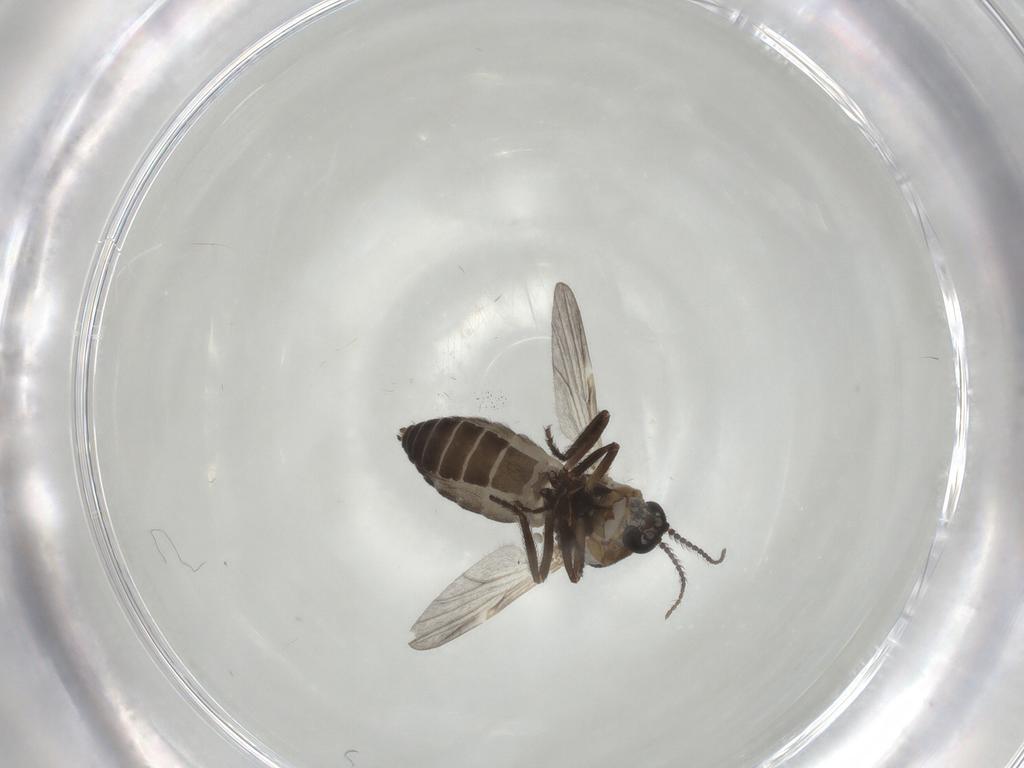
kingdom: Animalia
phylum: Arthropoda
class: Insecta
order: Diptera
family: Ceratopogonidae
